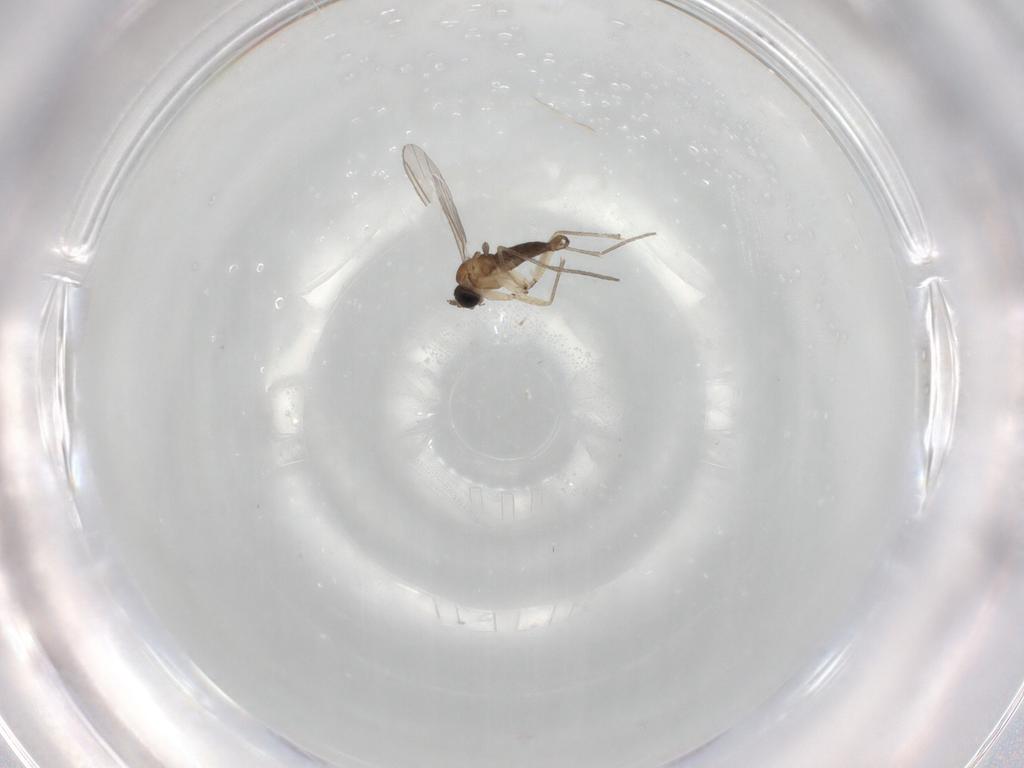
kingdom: Animalia
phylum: Arthropoda
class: Insecta
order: Diptera
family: Sciaridae
